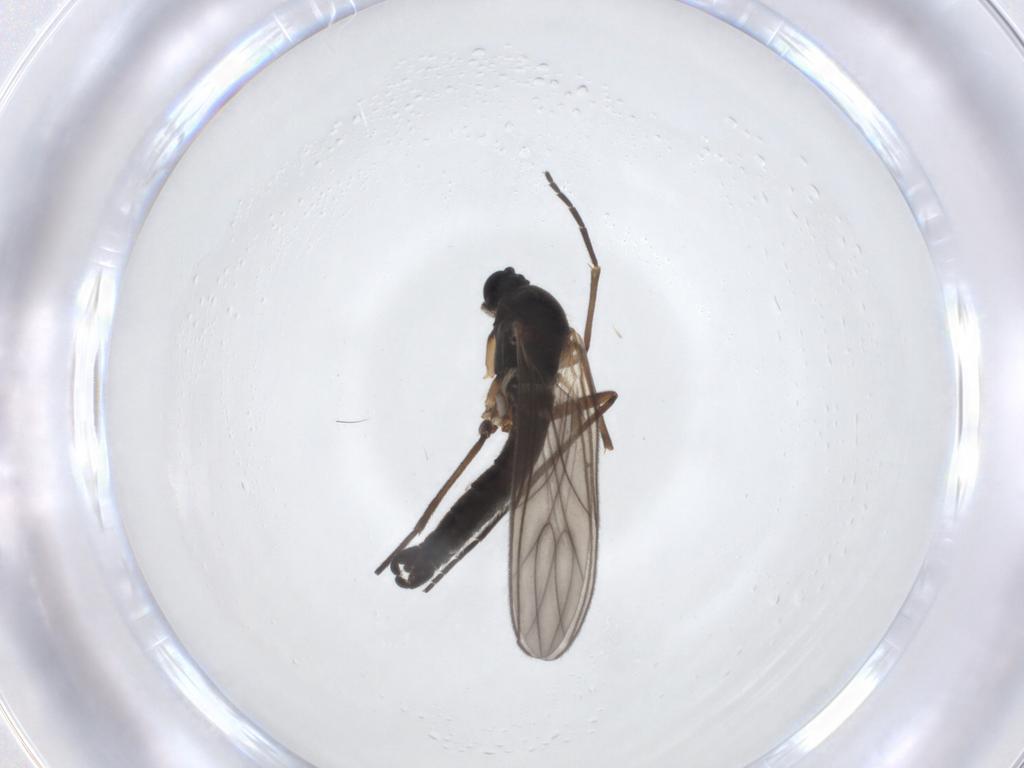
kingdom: Animalia
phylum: Arthropoda
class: Insecta
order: Diptera
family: Sciaridae
